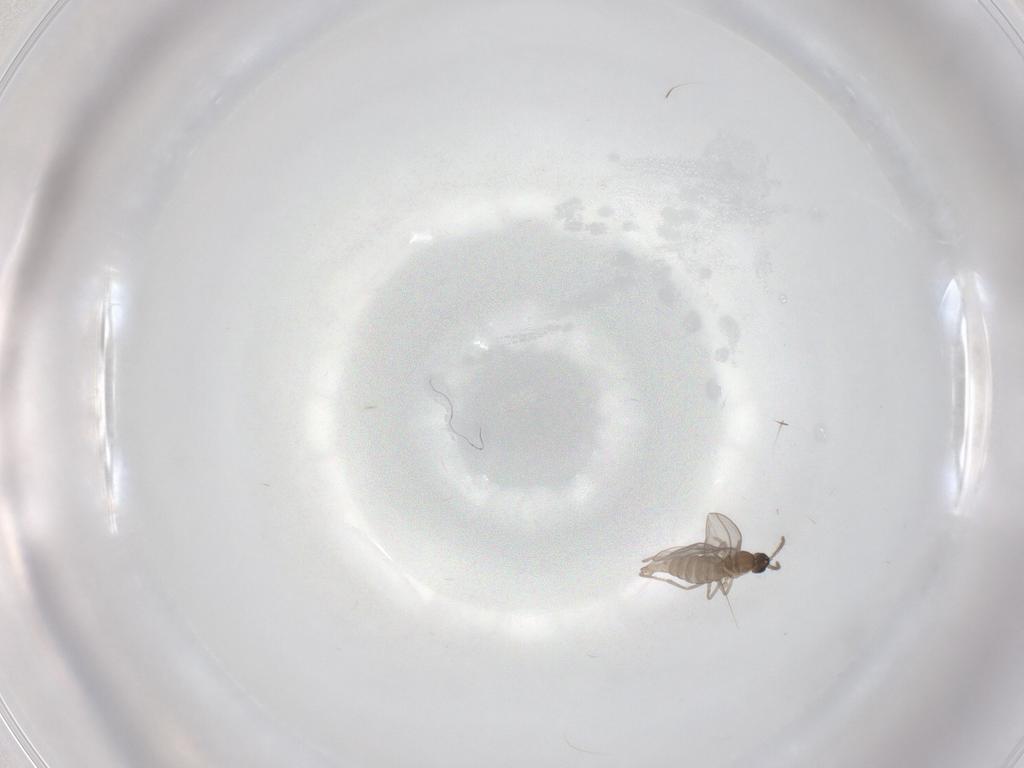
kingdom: Animalia
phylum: Arthropoda
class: Insecta
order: Diptera
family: Cecidomyiidae
